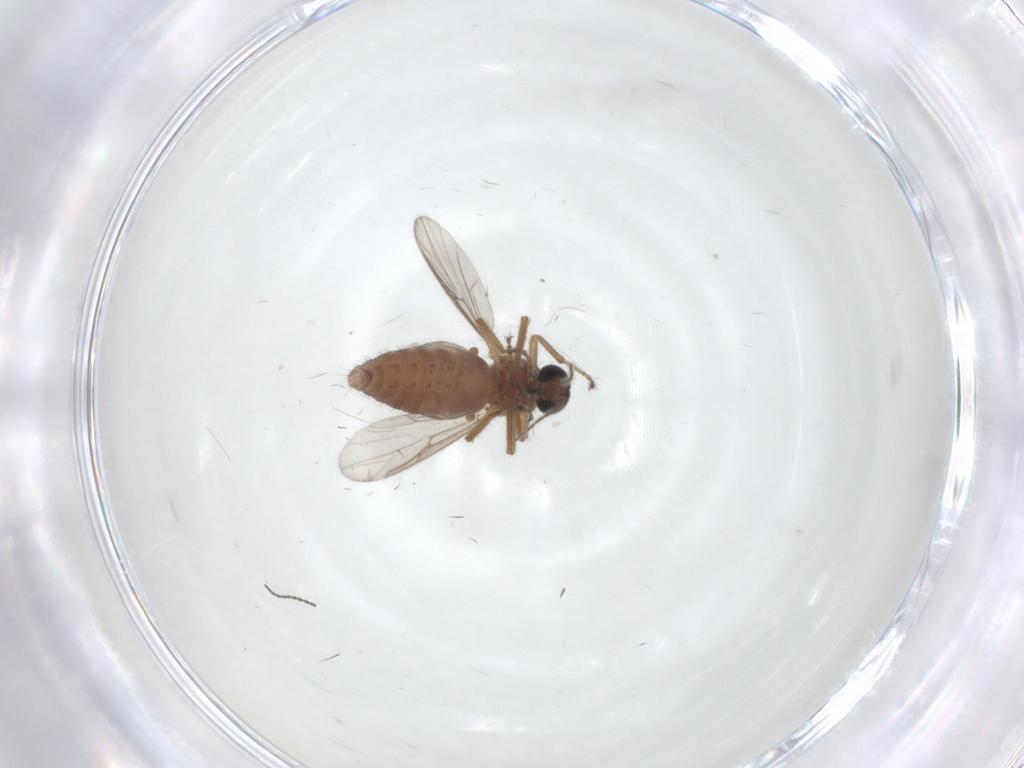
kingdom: Animalia
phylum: Arthropoda
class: Insecta
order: Diptera
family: Ceratopogonidae
